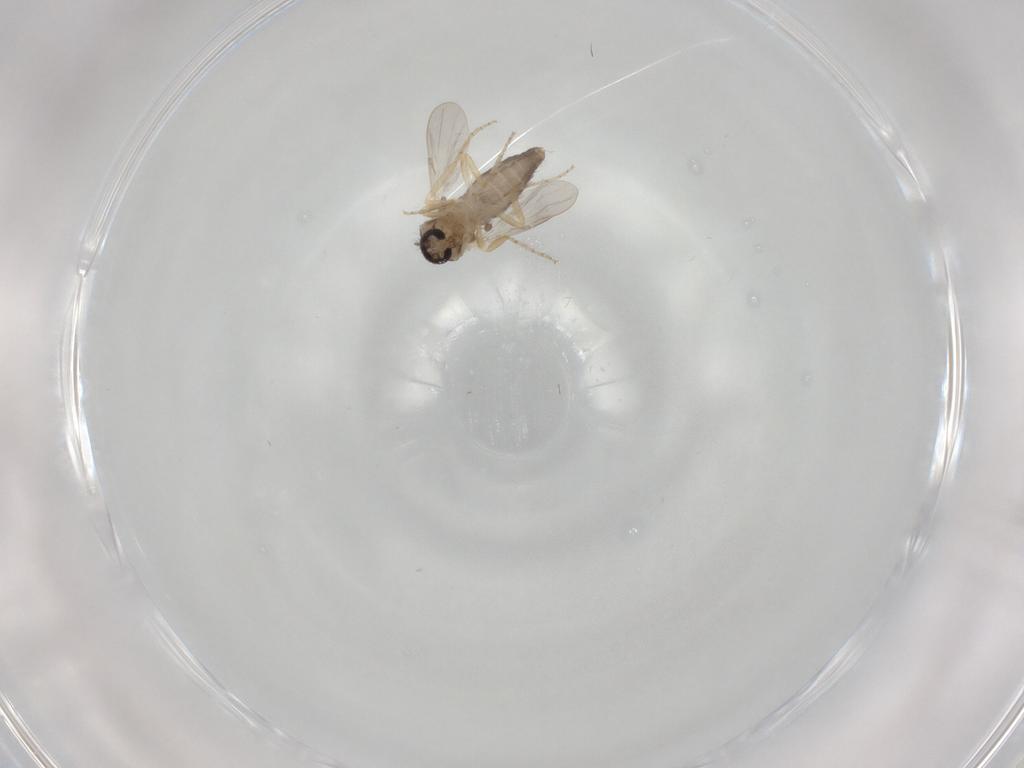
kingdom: Animalia
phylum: Arthropoda
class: Insecta
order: Diptera
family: Ceratopogonidae
